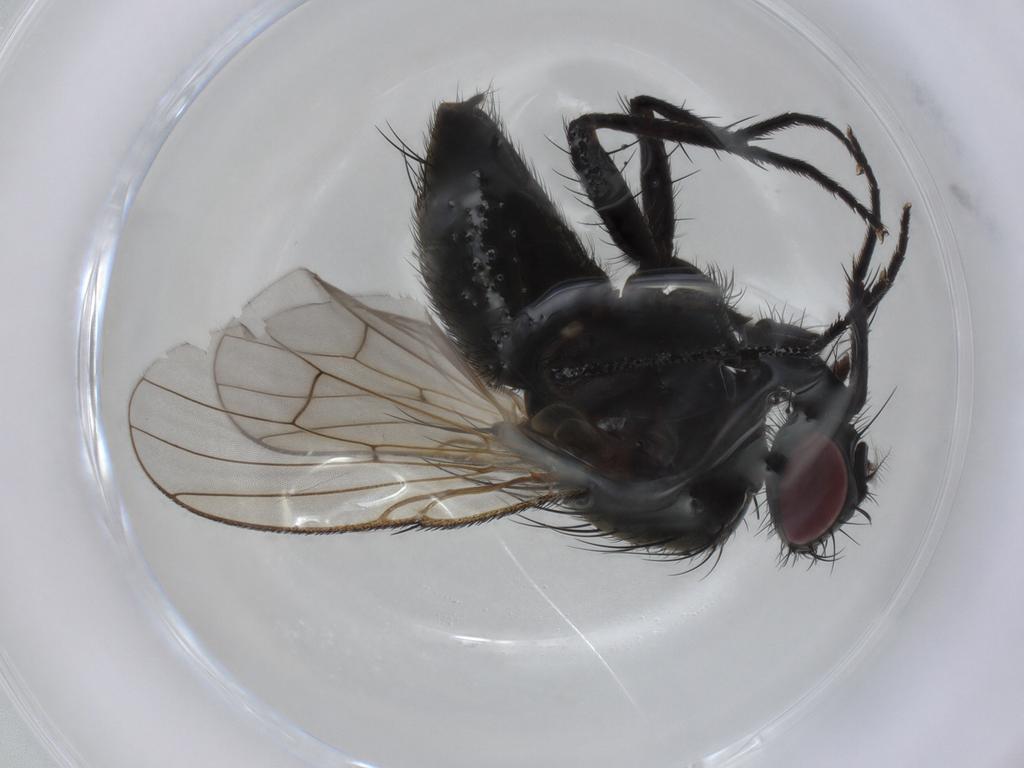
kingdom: Animalia
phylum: Arthropoda
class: Insecta
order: Diptera
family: Muscidae
